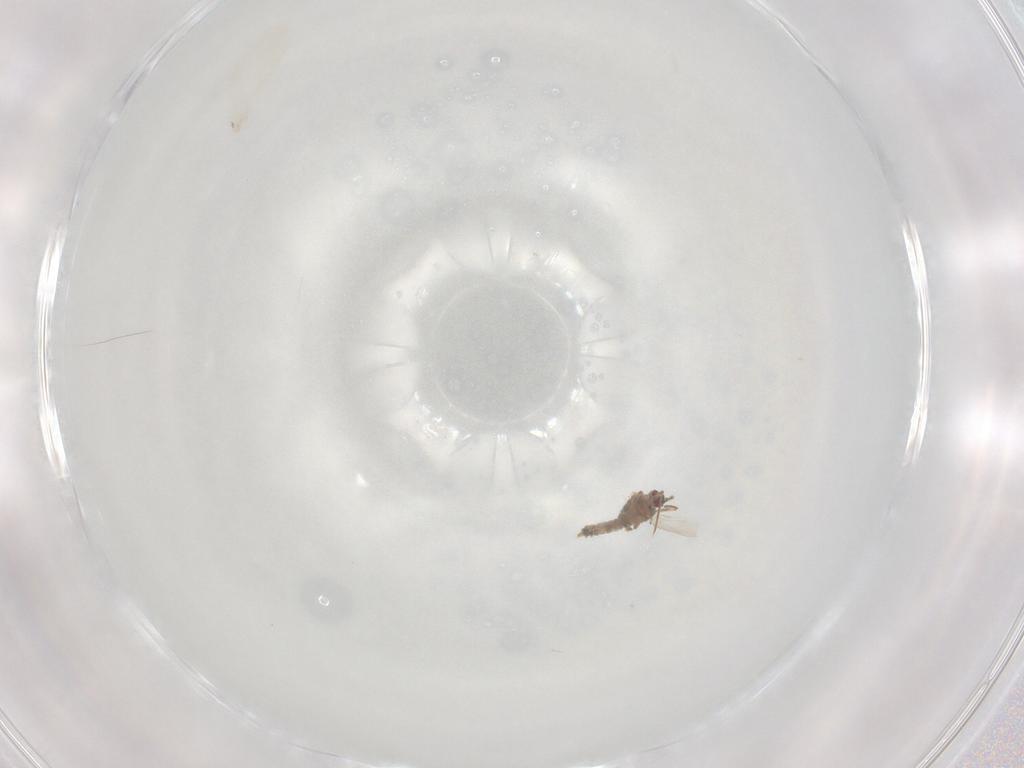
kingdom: Animalia
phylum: Arthropoda
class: Insecta
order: Hemiptera
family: Pseudococcidae
